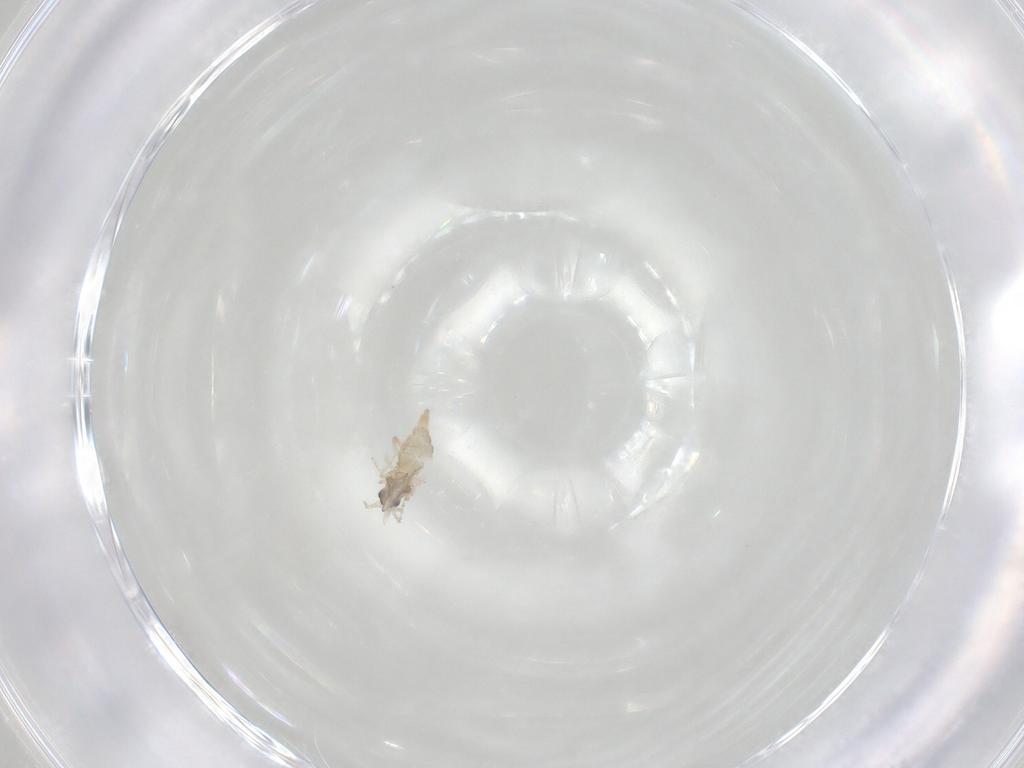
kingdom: Animalia
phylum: Arthropoda
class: Insecta
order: Diptera
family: Cecidomyiidae
